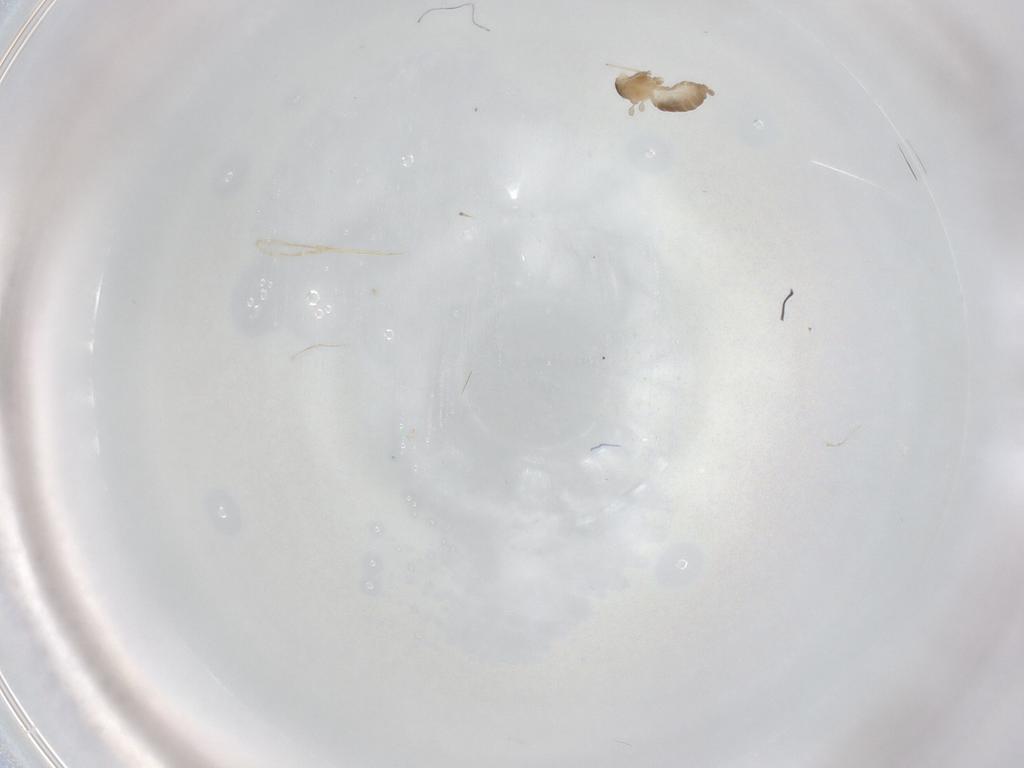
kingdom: Animalia
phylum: Arthropoda
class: Insecta
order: Diptera
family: Cecidomyiidae
